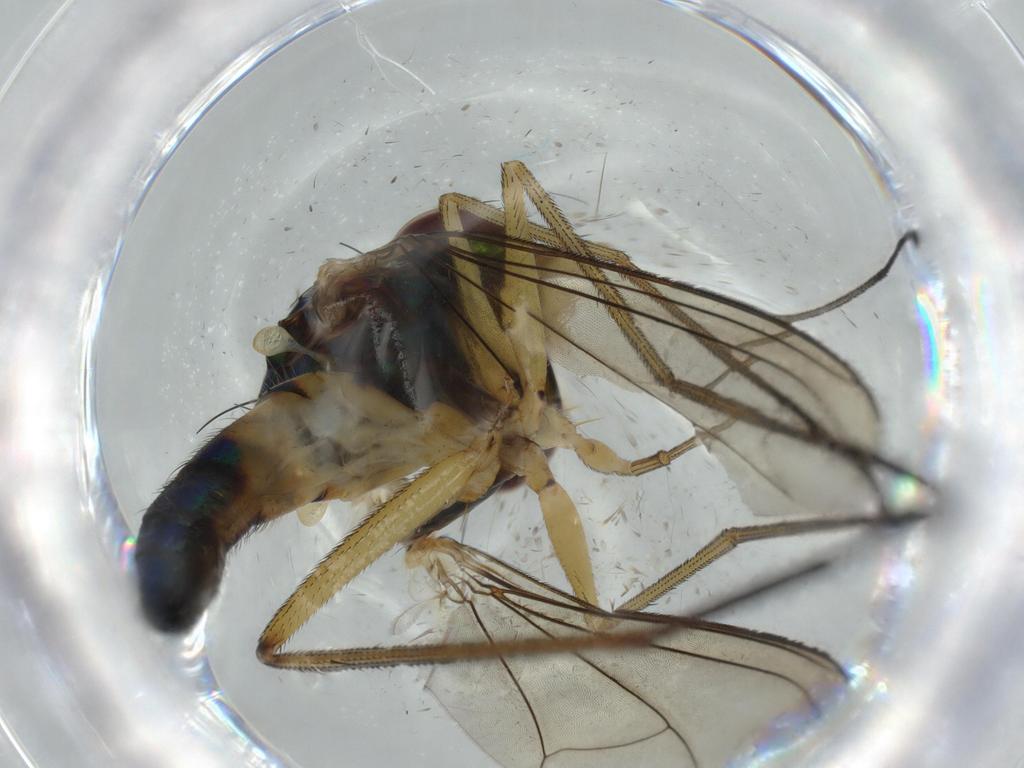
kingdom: Animalia
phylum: Arthropoda
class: Insecta
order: Diptera
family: Dolichopodidae
